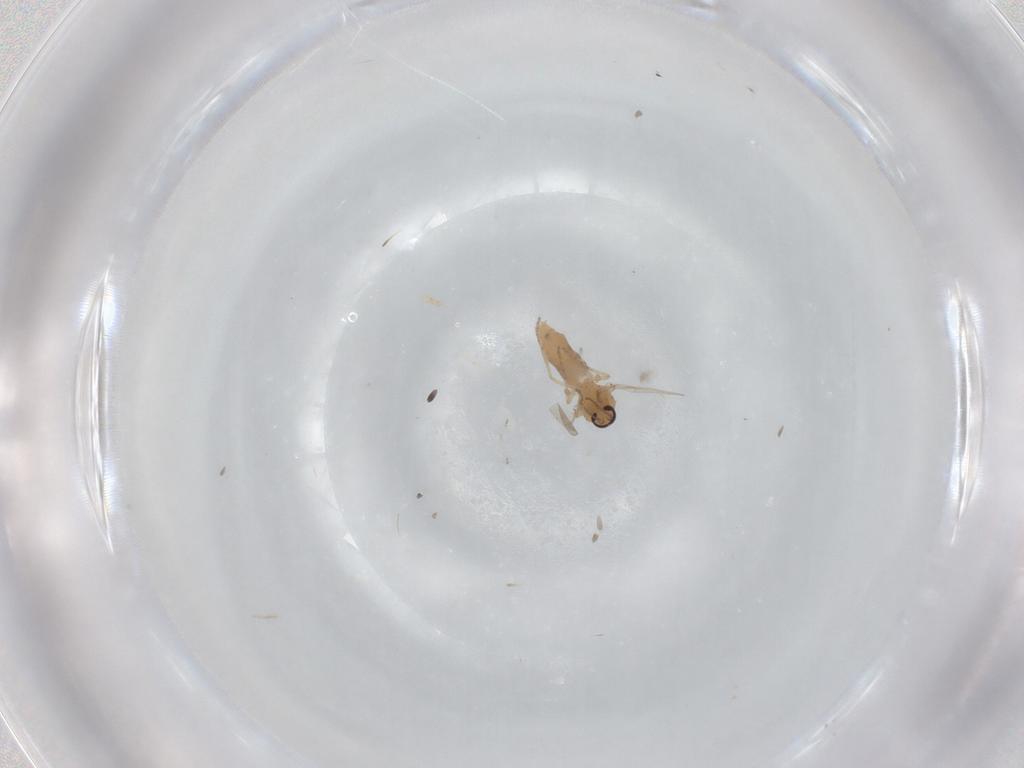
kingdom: Animalia
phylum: Arthropoda
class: Insecta
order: Diptera
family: Ceratopogonidae
